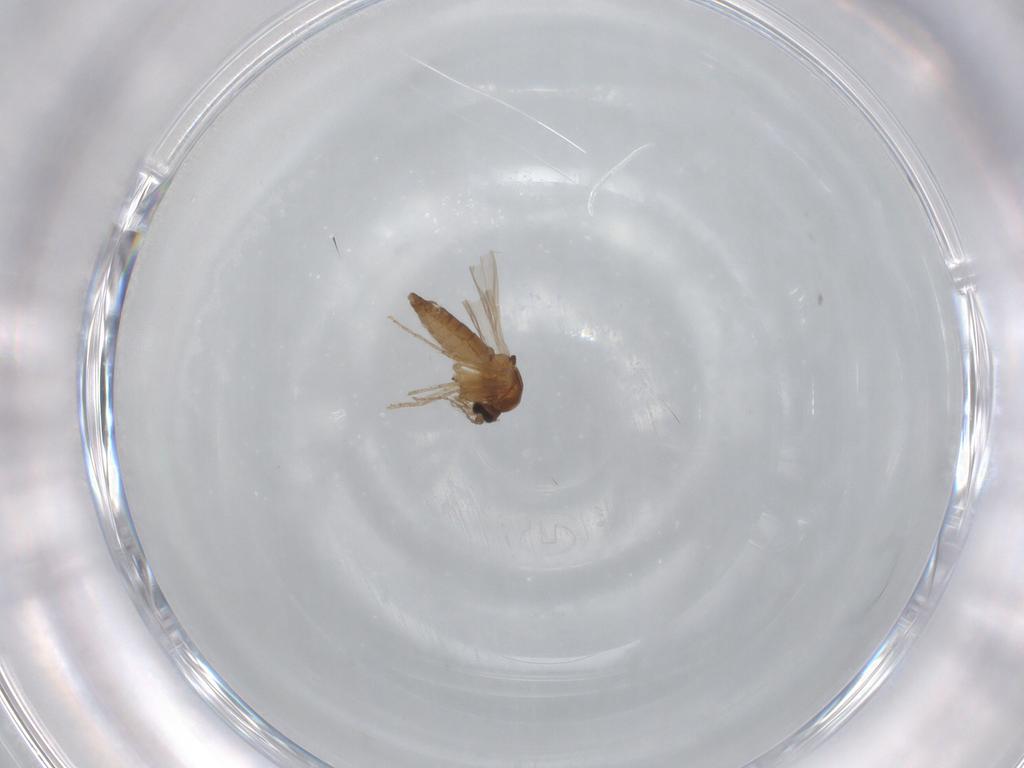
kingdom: Animalia
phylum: Arthropoda
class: Insecta
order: Diptera
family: Ceratopogonidae
